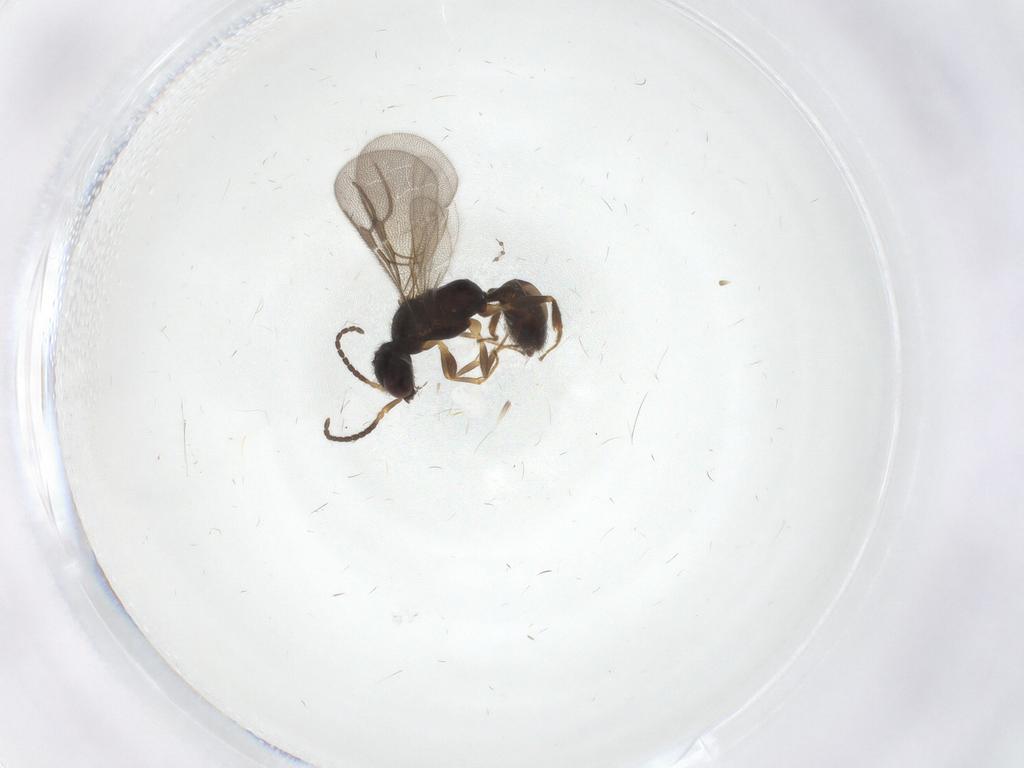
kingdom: Animalia
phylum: Arthropoda
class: Insecta
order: Hymenoptera
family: Bethylidae
